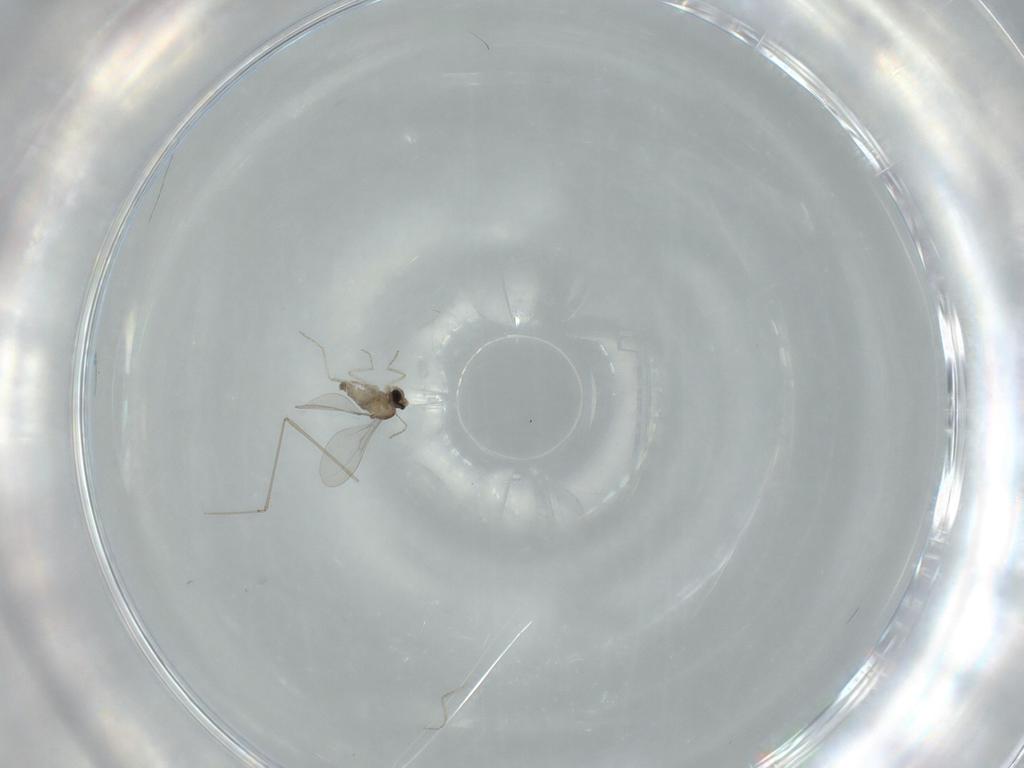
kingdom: Animalia
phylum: Arthropoda
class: Insecta
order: Diptera
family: Cecidomyiidae
